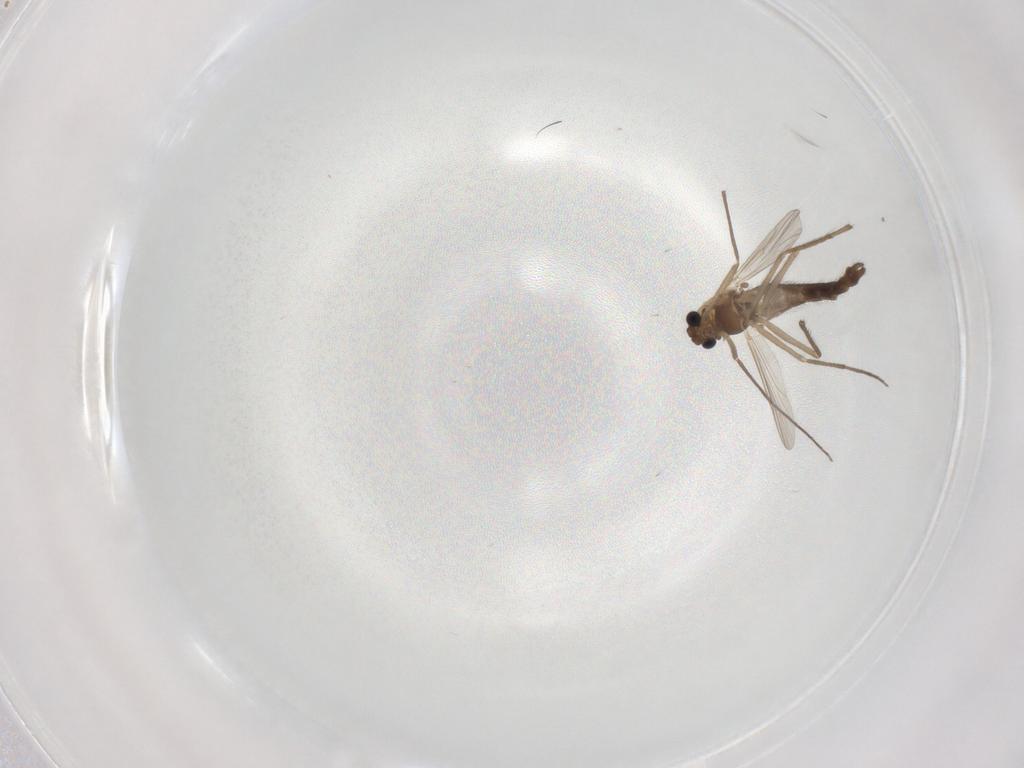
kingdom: Animalia
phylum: Arthropoda
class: Insecta
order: Diptera
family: Chironomidae
